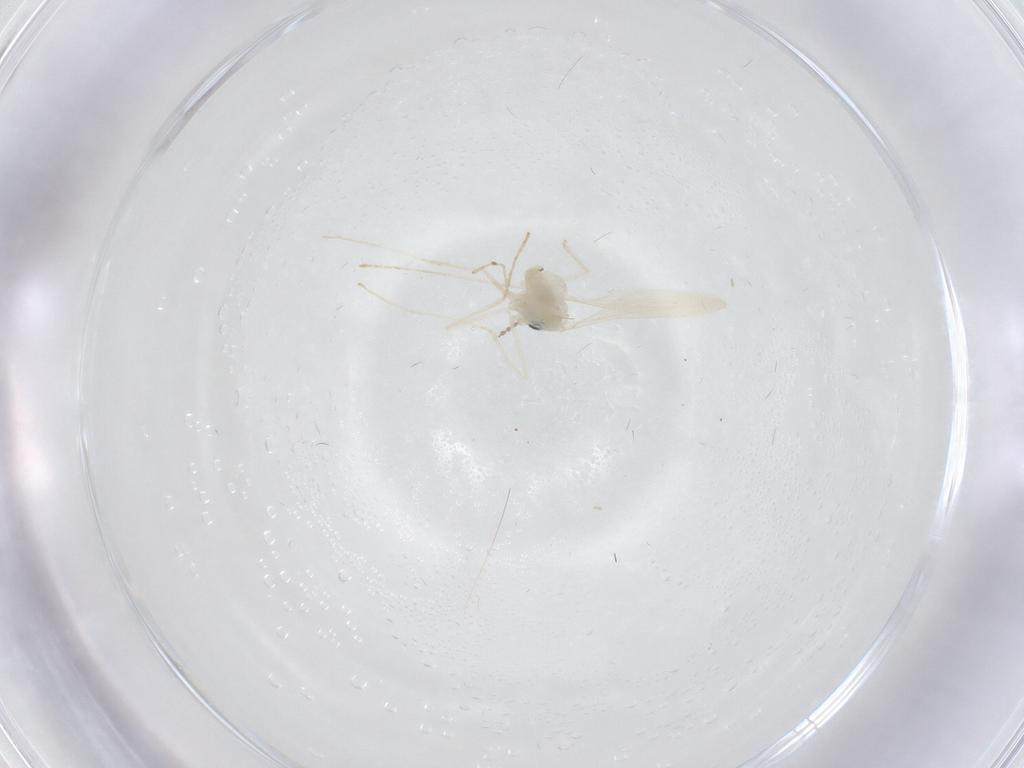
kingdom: Animalia
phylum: Arthropoda
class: Insecta
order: Diptera
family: Cecidomyiidae
